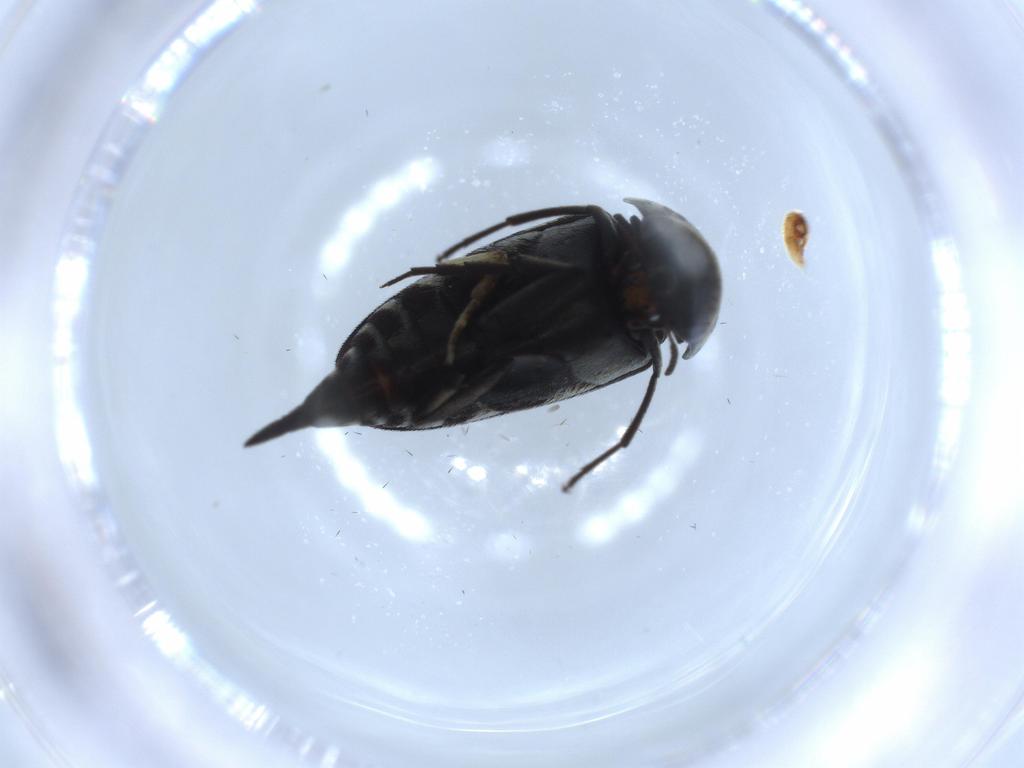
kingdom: Animalia
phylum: Arthropoda
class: Insecta
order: Coleoptera
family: Mordellidae
